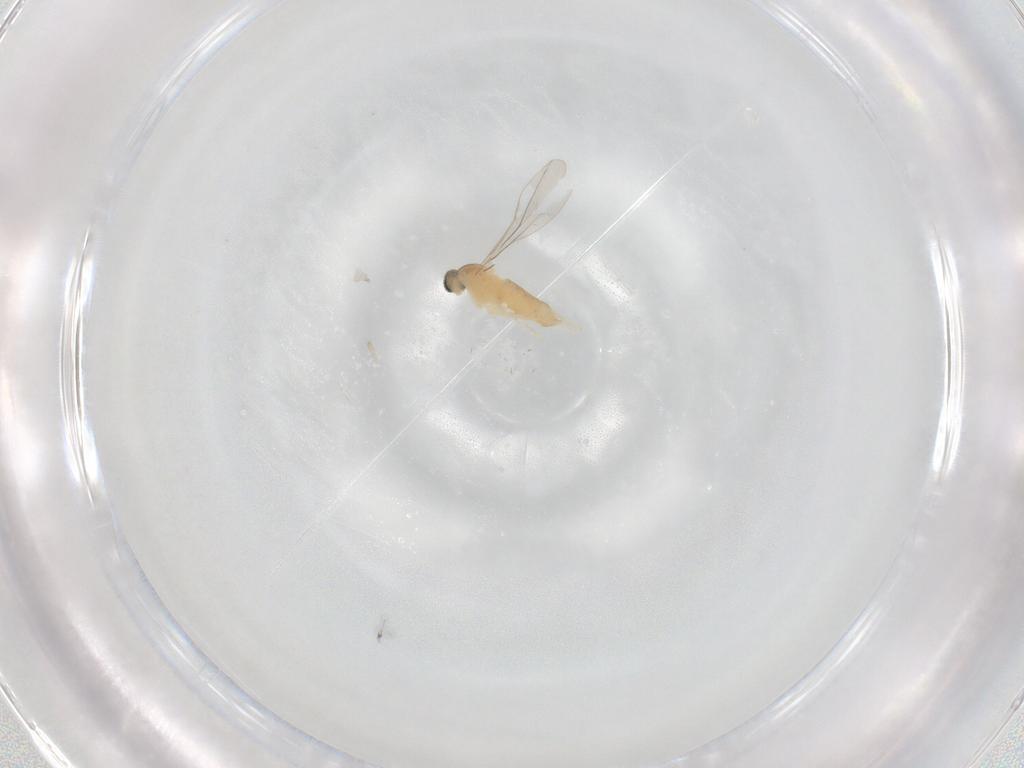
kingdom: Animalia
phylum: Arthropoda
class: Insecta
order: Diptera
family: Cecidomyiidae
